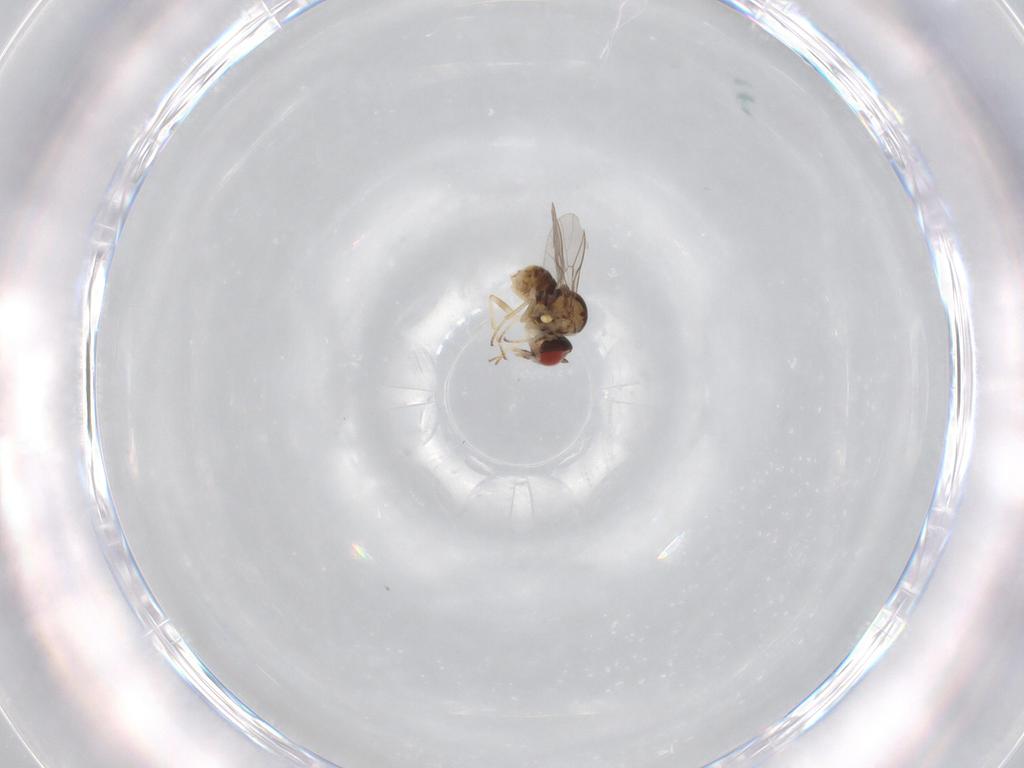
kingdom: Animalia
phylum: Arthropoda
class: Insecta
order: Diptera
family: Bombyliidae
